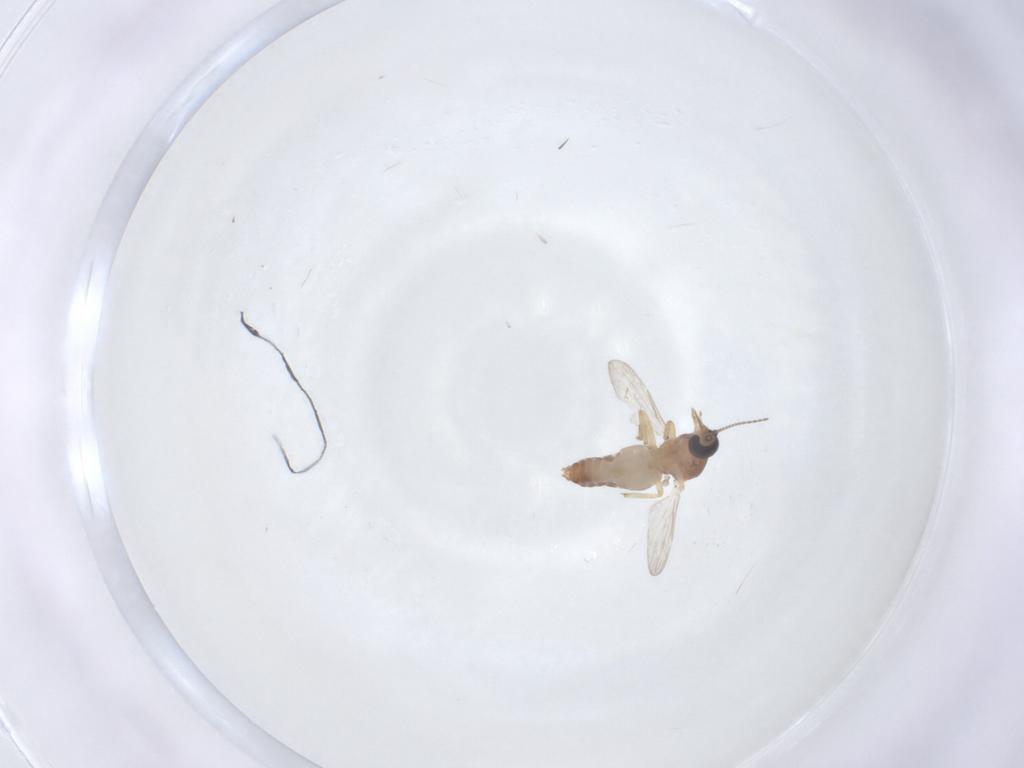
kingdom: Animalia
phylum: Arthropoda
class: Insecta
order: Diptera
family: Ceratopogonidae
